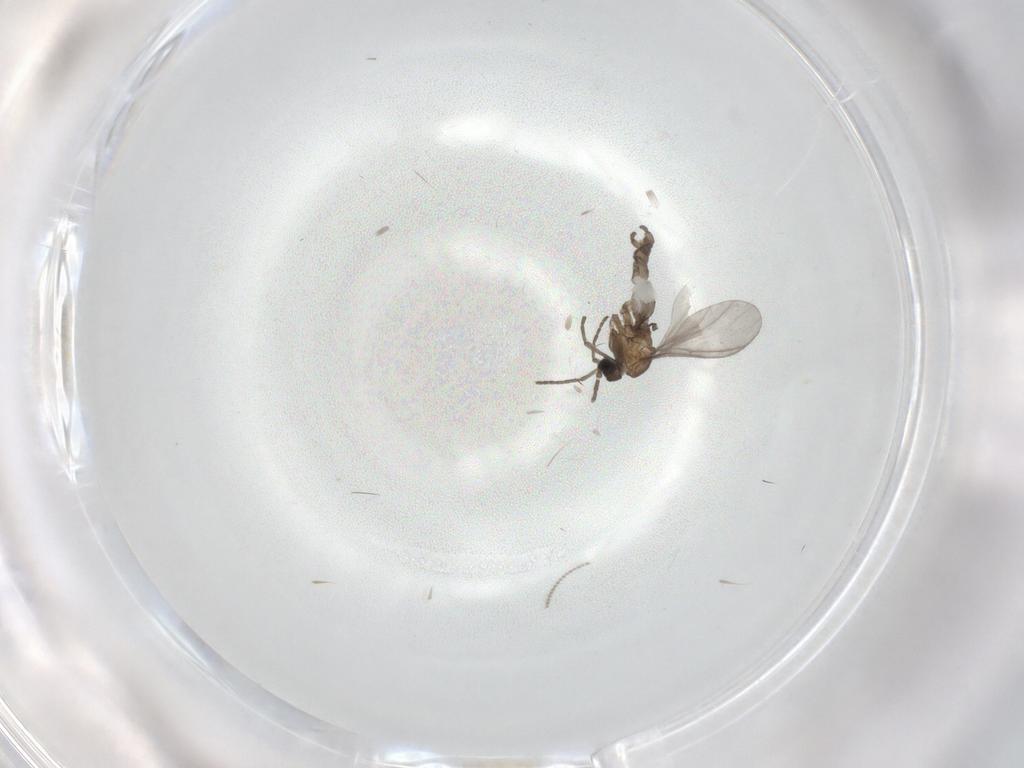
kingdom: Animalia
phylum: Arthropoda
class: Insecta
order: Diptera
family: Sciaridae
